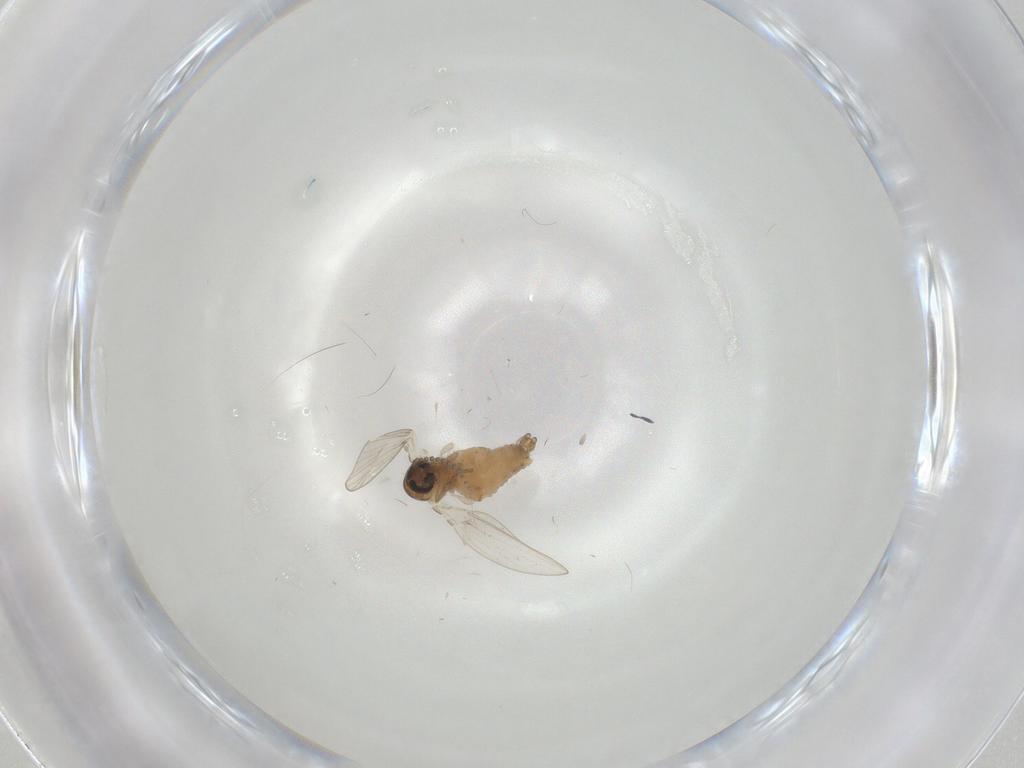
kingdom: Animalia
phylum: Arthropoda
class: Insecta
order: Diptera
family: Psychodidae
